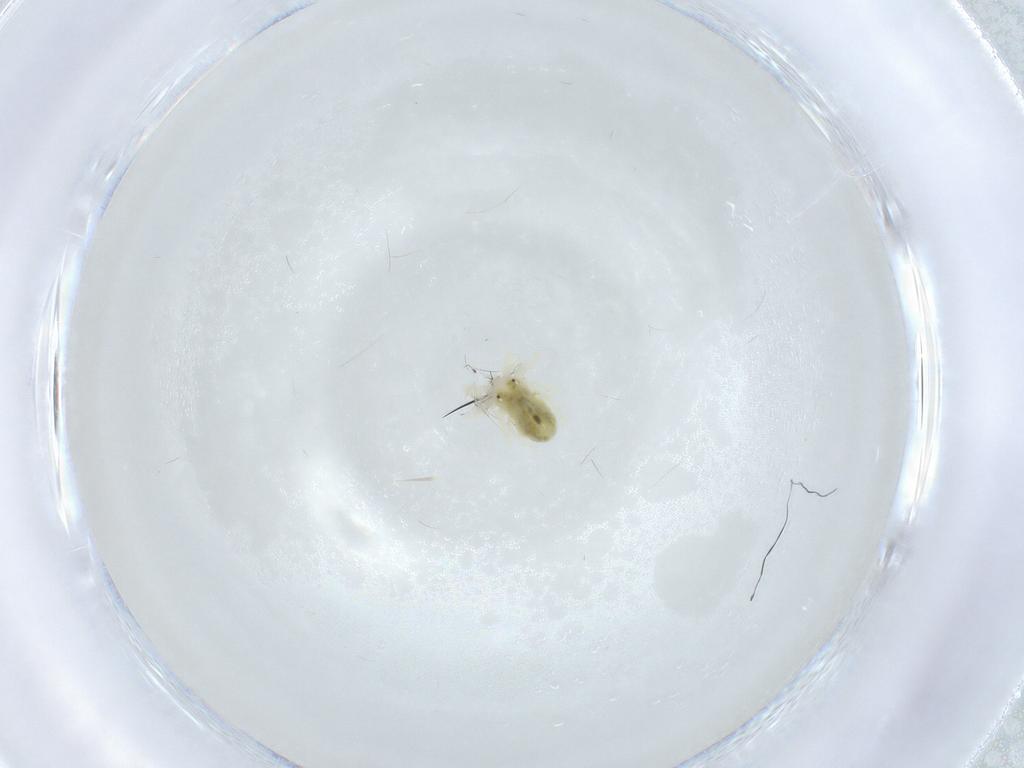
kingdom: Animalia
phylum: Arthropoda
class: Arachnida
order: Trombidiformes
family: Anystidae
